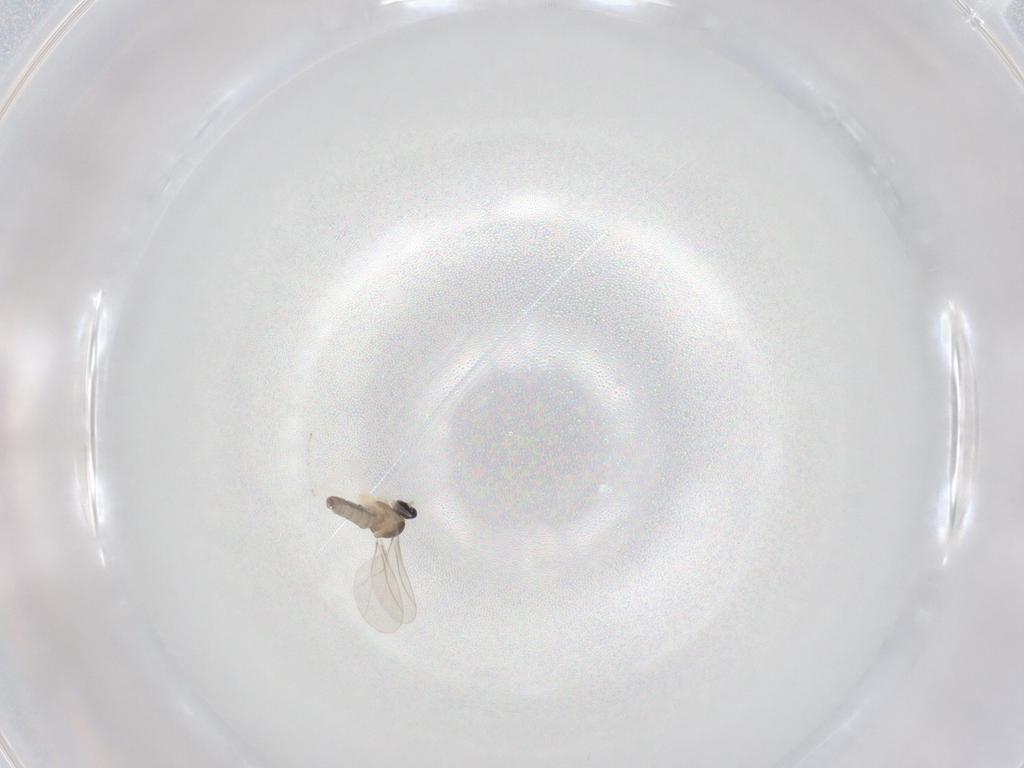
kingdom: Animalia
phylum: Arthropoda
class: Insecta
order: Diptera
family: Cecidomyiidae
